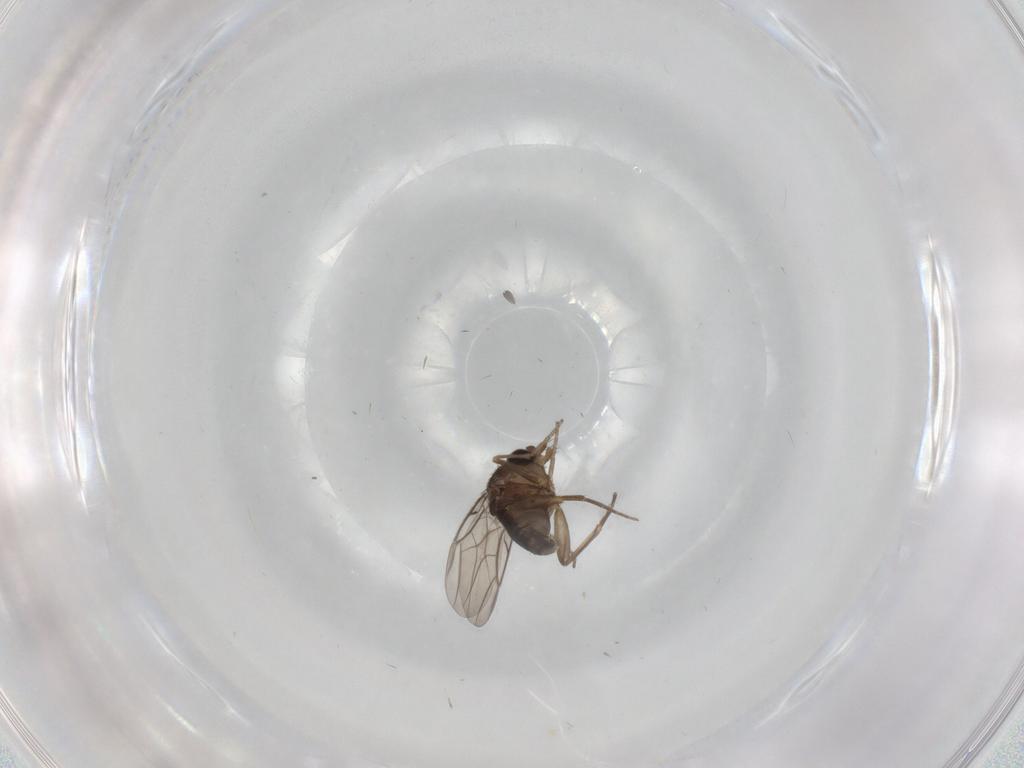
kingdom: Animalia
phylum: Arthropoda
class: Insecta
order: Diptera
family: Phoridae
